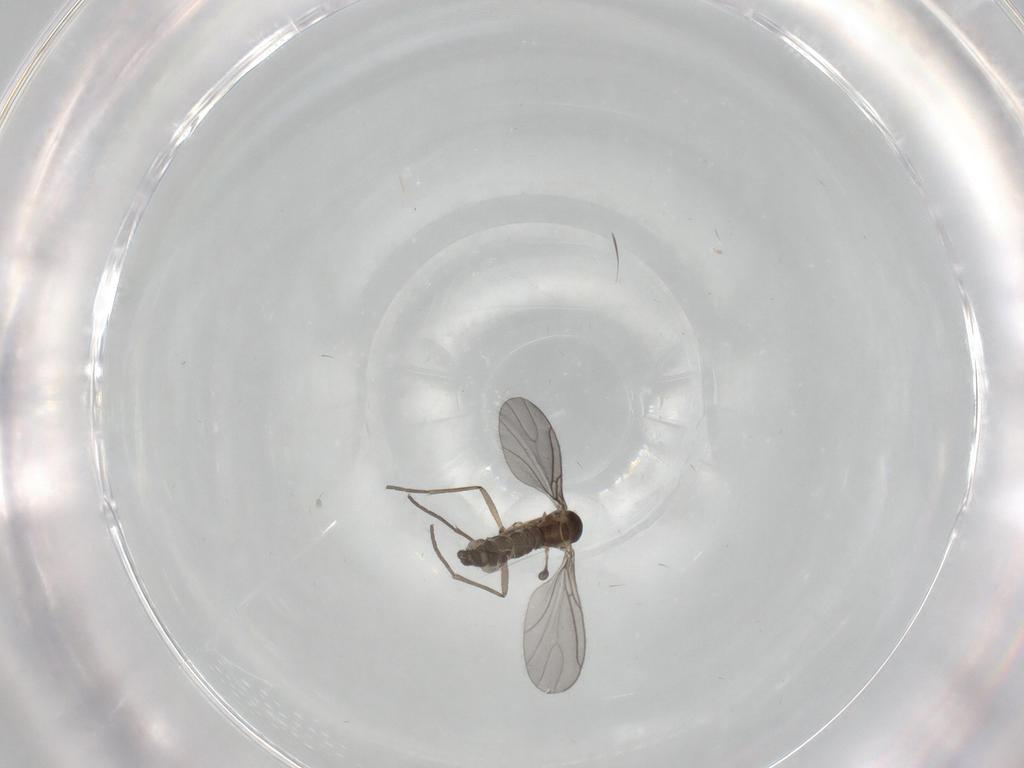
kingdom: Animalia
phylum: Arthropoda
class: Insecta
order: Diptera
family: Sciaridae
